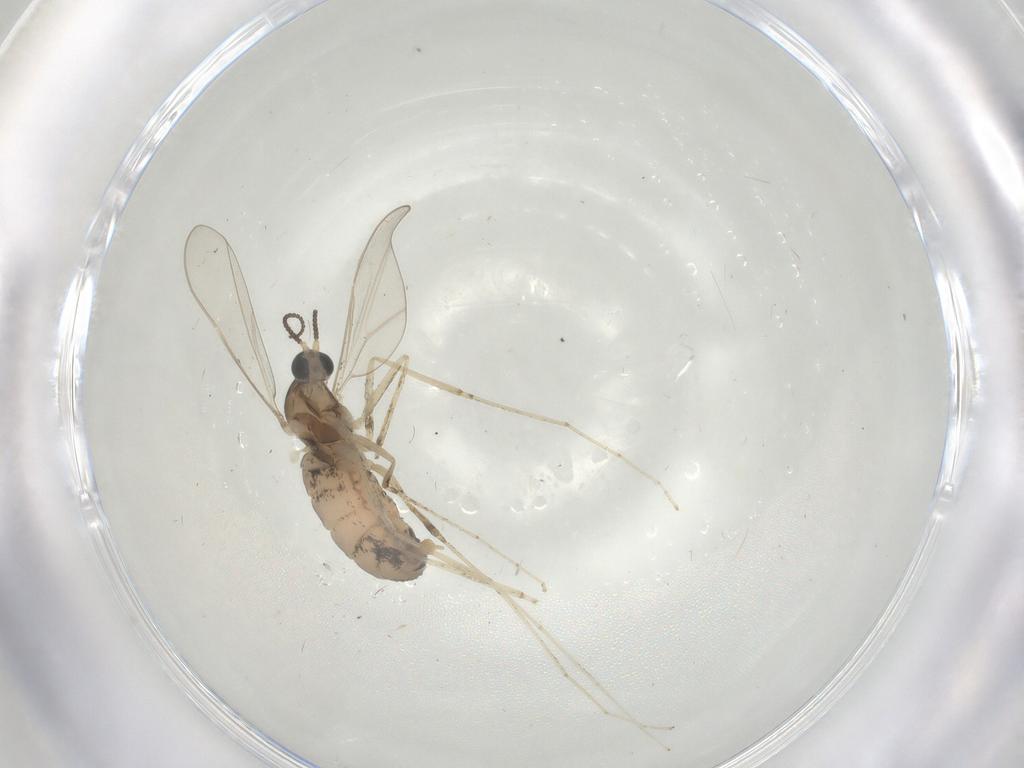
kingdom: Animalia
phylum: Arthropoda
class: Insecta
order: Diptera
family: Cecidomyiidae
